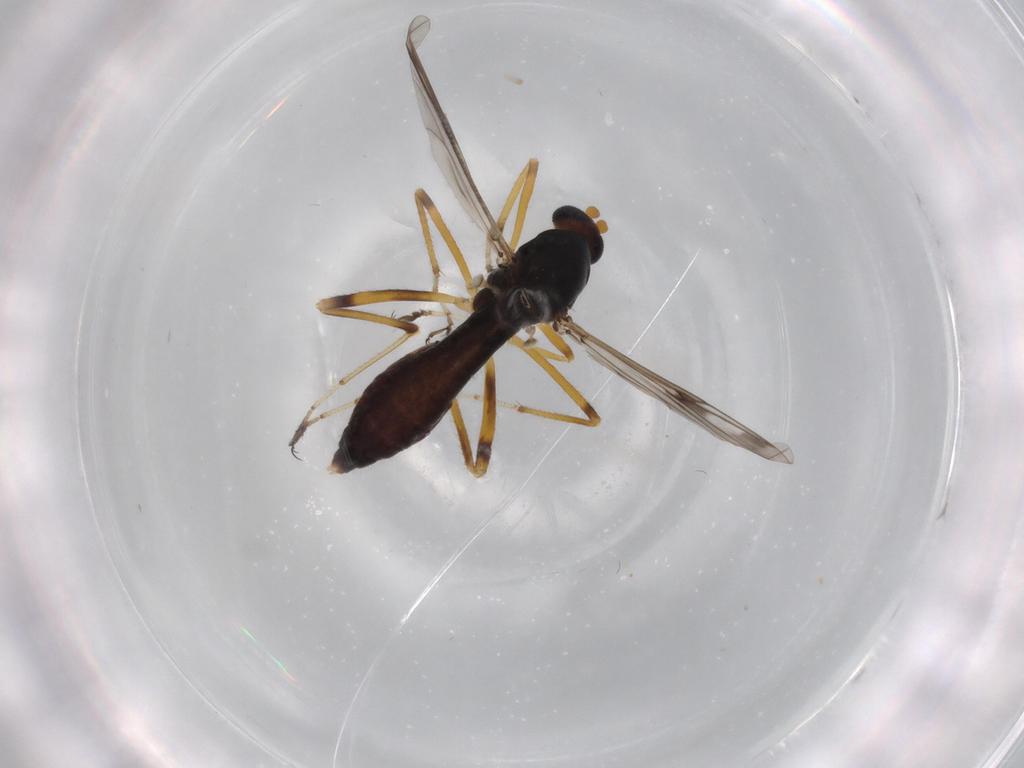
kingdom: Animalia
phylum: Arthropoda
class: Insecta
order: Diptera
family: Ceratopogonidae
